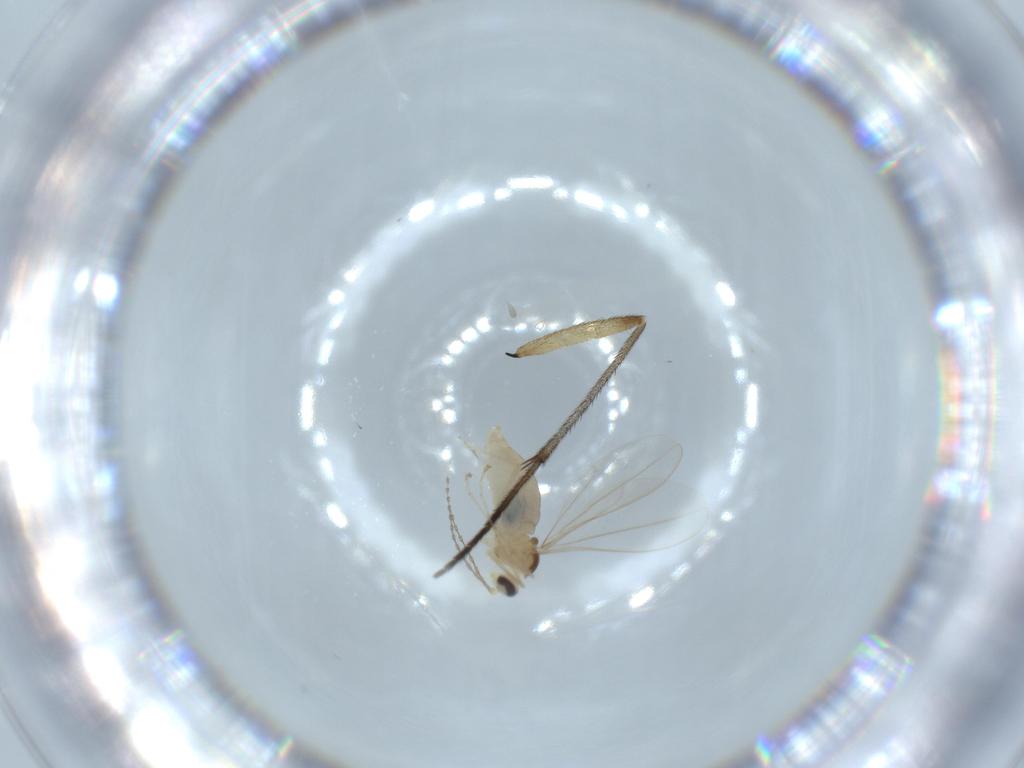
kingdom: Animalia
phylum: Arthropoda
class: Insecta
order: Diptera
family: Cecidomyiidae
